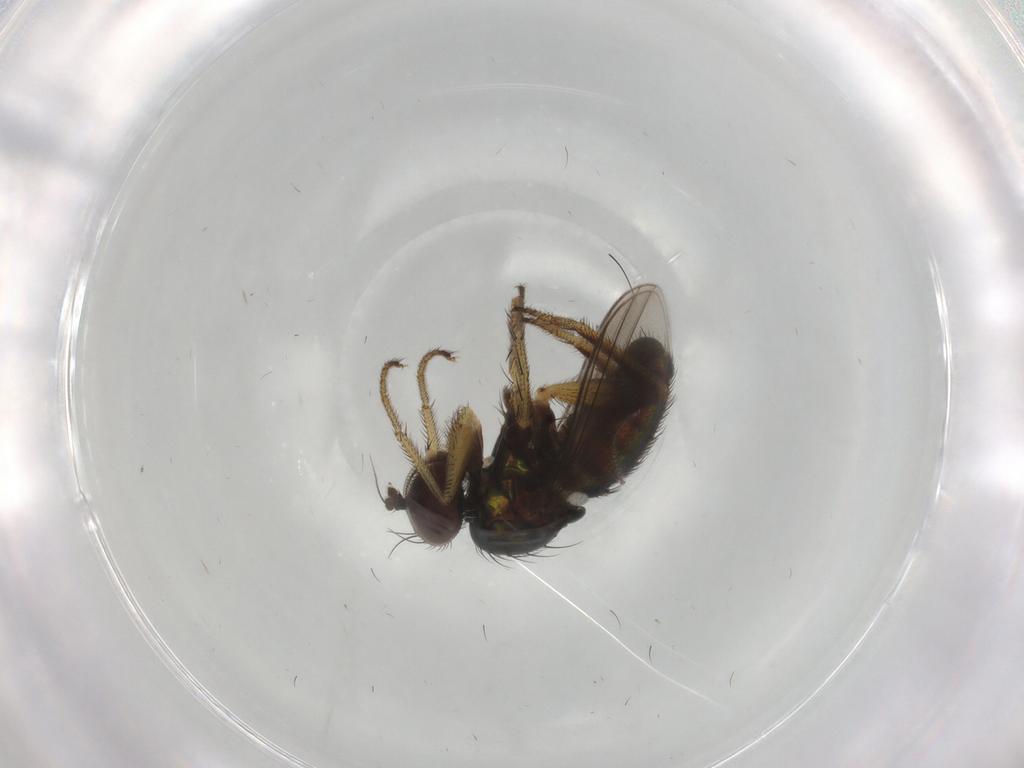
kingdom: Animalia
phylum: Arthropoda
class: Insecta
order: Diptera
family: Dolichopodidae
